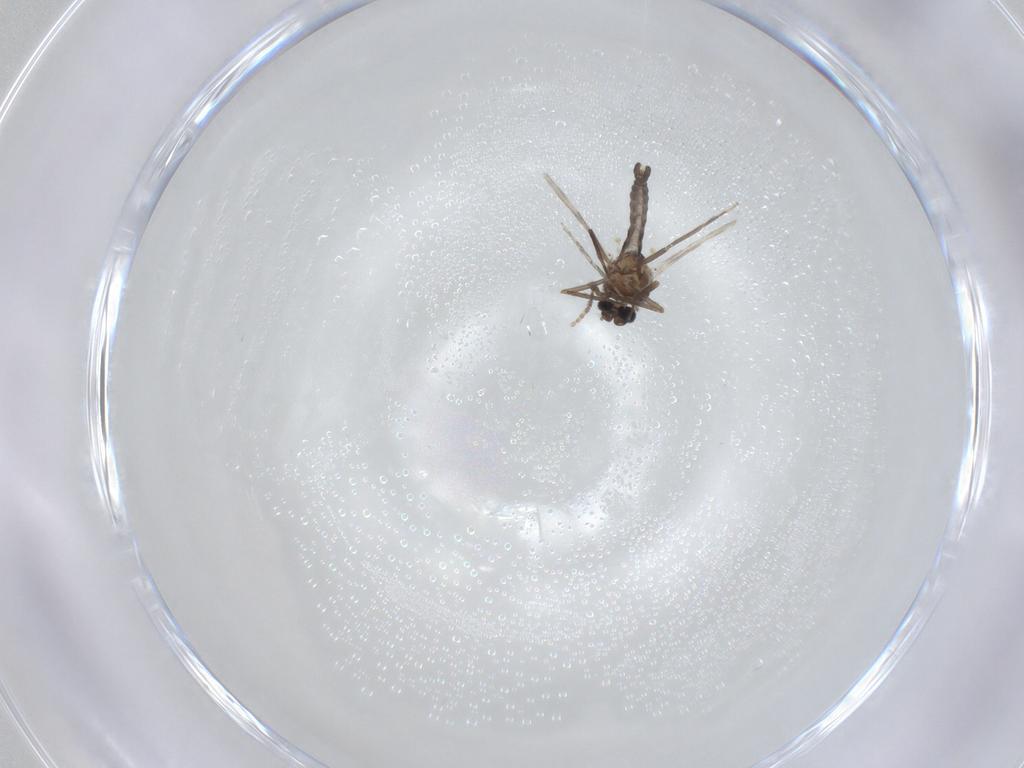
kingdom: Animalia
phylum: Arthropoda
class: Insecta
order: Diptera
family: Ceratopogonidae
